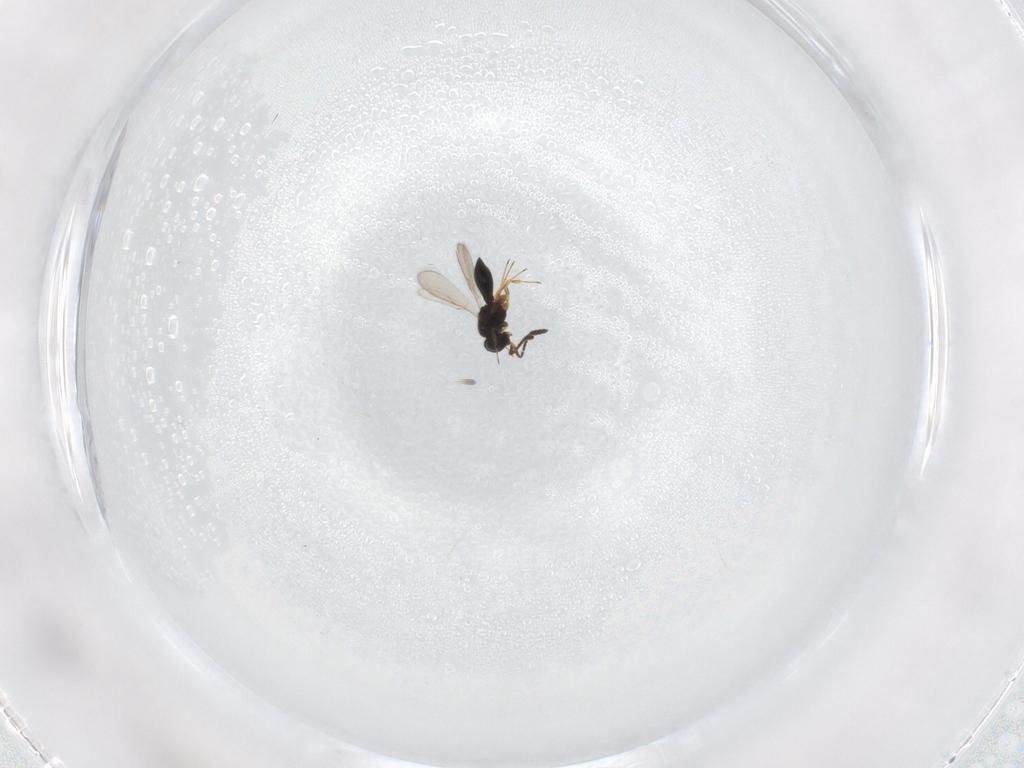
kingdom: Animalia
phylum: Arthropoda
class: Insecta
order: Hymenoptera
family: Scelionidae
